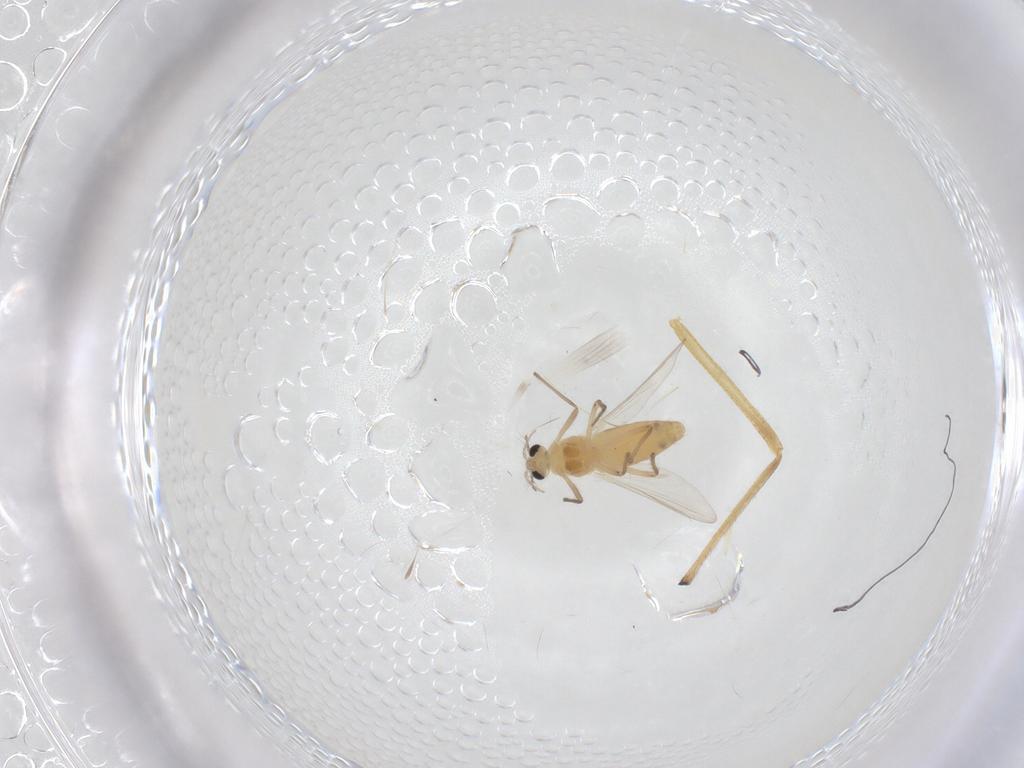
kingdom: Animalia
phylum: Arthropoda
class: Insecta
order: Diptera
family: Chironomidae
